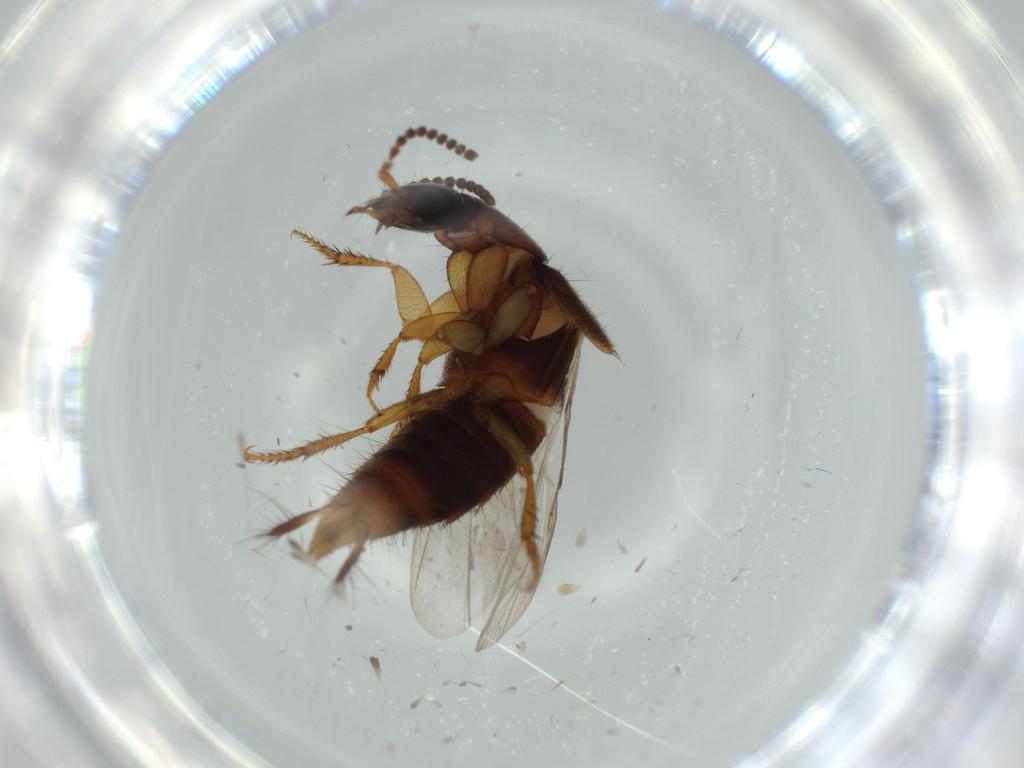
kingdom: Animalia
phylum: Arthropoda
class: Insecta
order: Coleoptera
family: Staphylinidae
